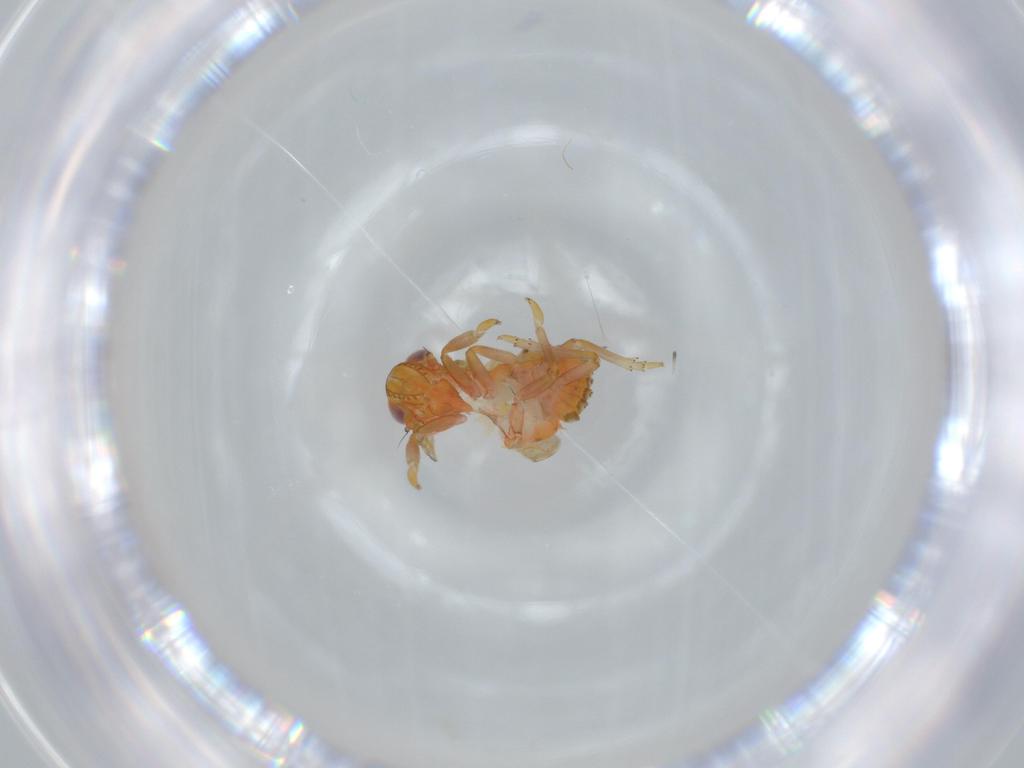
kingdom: Animalia
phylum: Arthropoda
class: Insecta
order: Hemiptera
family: Issidae
